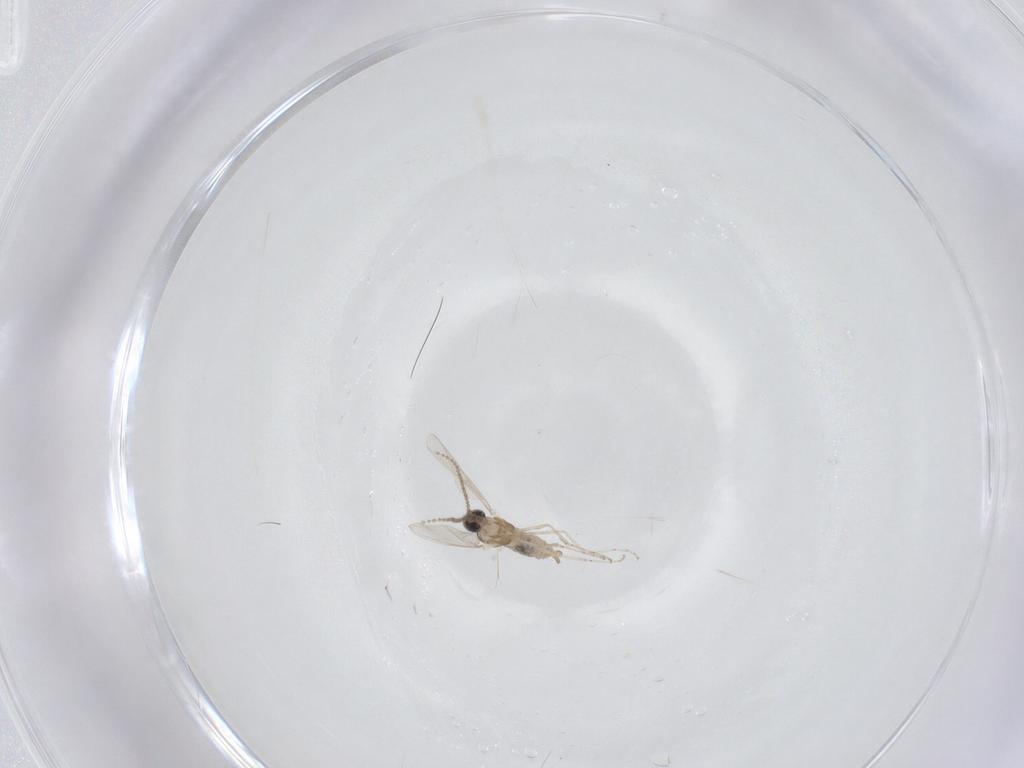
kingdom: Animalia
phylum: Arthropoda
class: Insecta
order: Diptera
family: Cecidomyiidae
